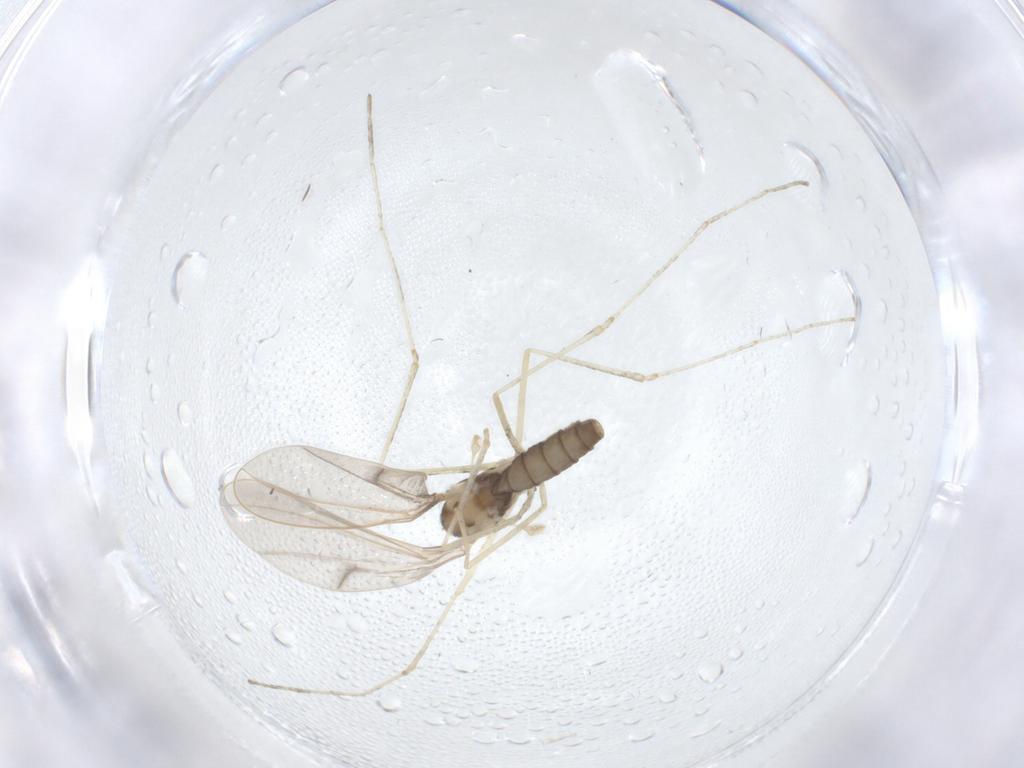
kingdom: Animalia
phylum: Arthropoda
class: Insecta
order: Diptera
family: Cecidomyiidae
